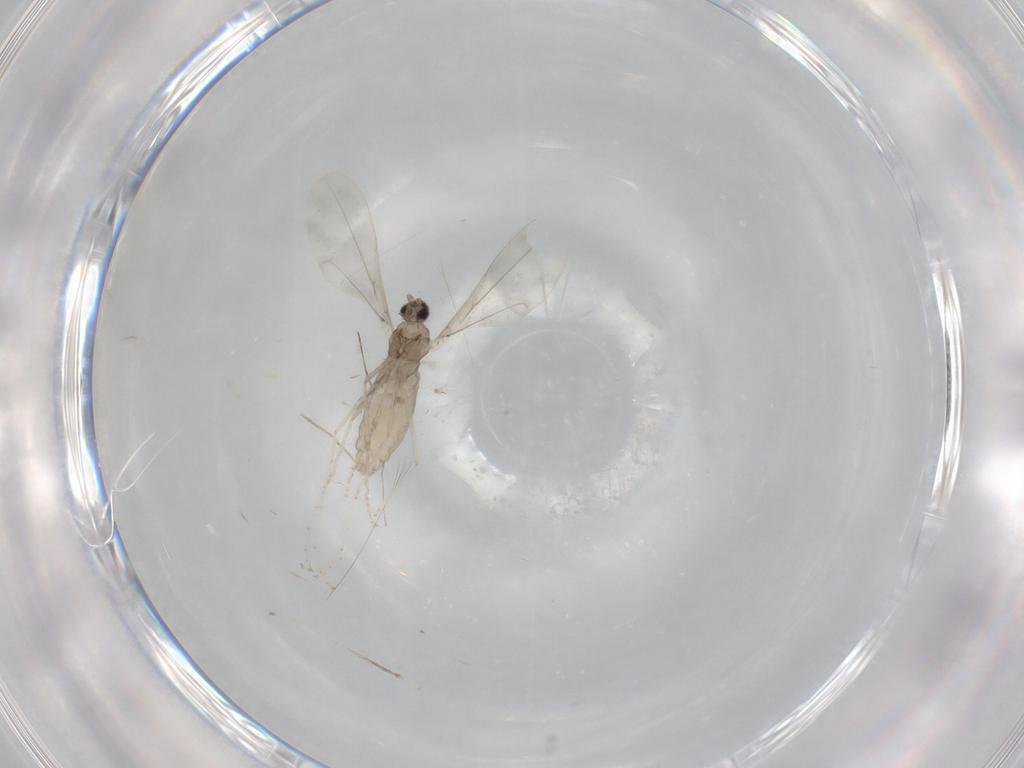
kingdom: Animalia
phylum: Arthropoda
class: Insecta
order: Diptera
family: Cecidomyiidae
